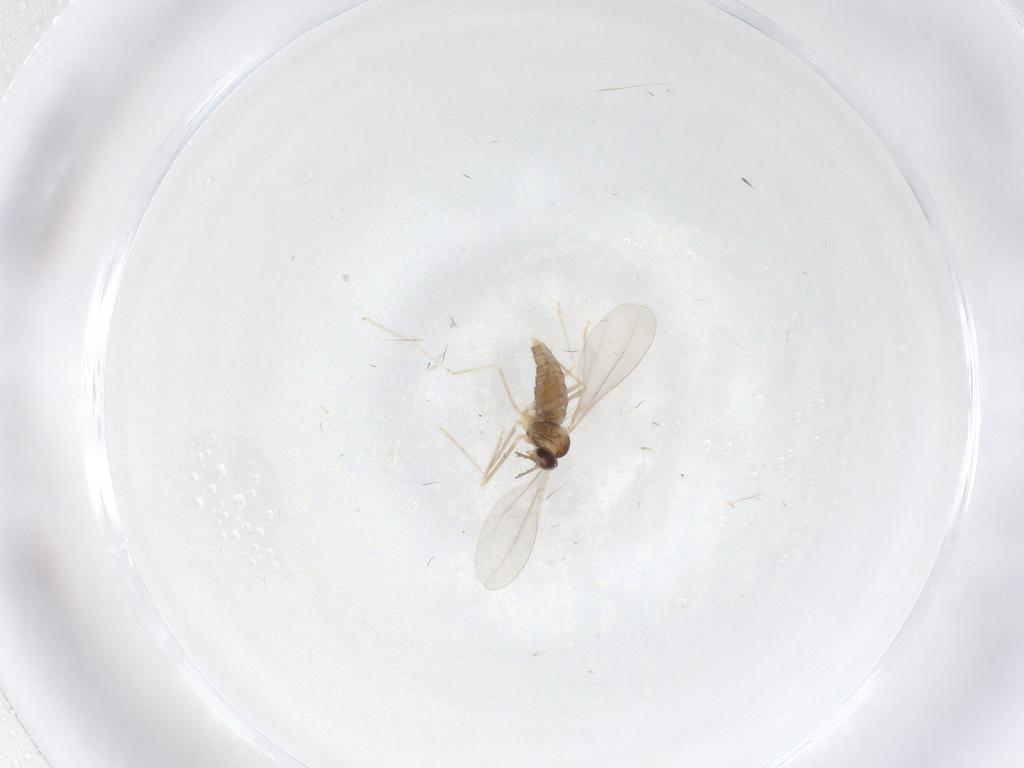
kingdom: Animalia
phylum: Arthropoda
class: Insecta
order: Diptera
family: Cecidomyiidae
